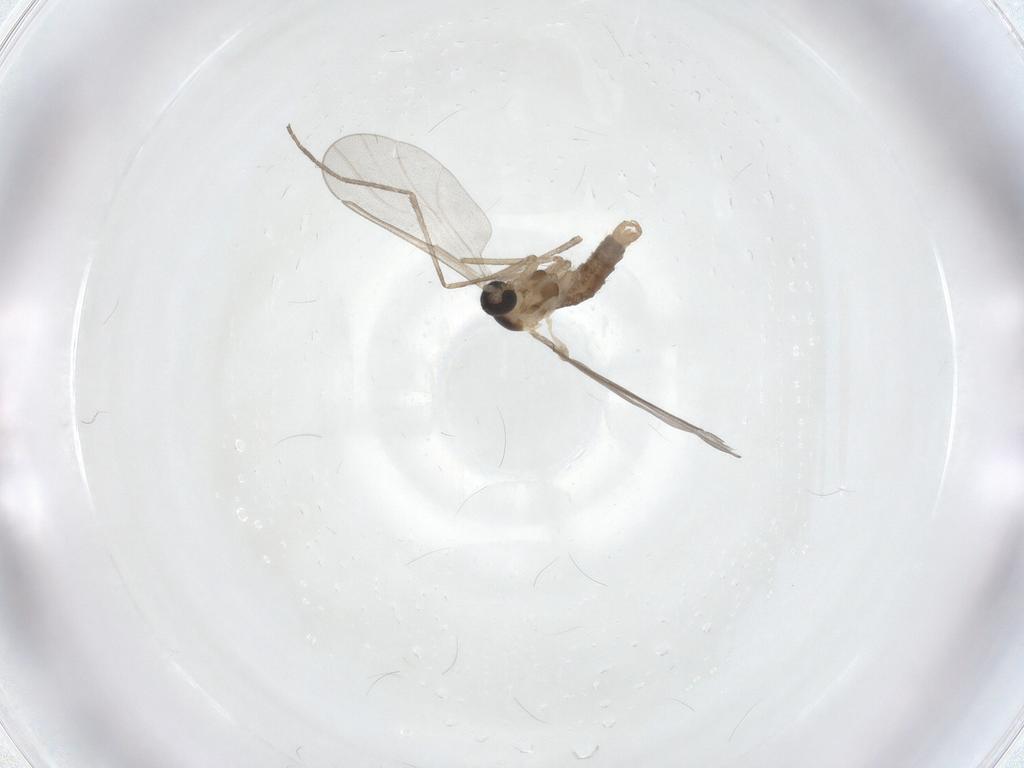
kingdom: Animalia
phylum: Arthropoda
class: Insecta
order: Diptera
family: Cecidomyiidae
